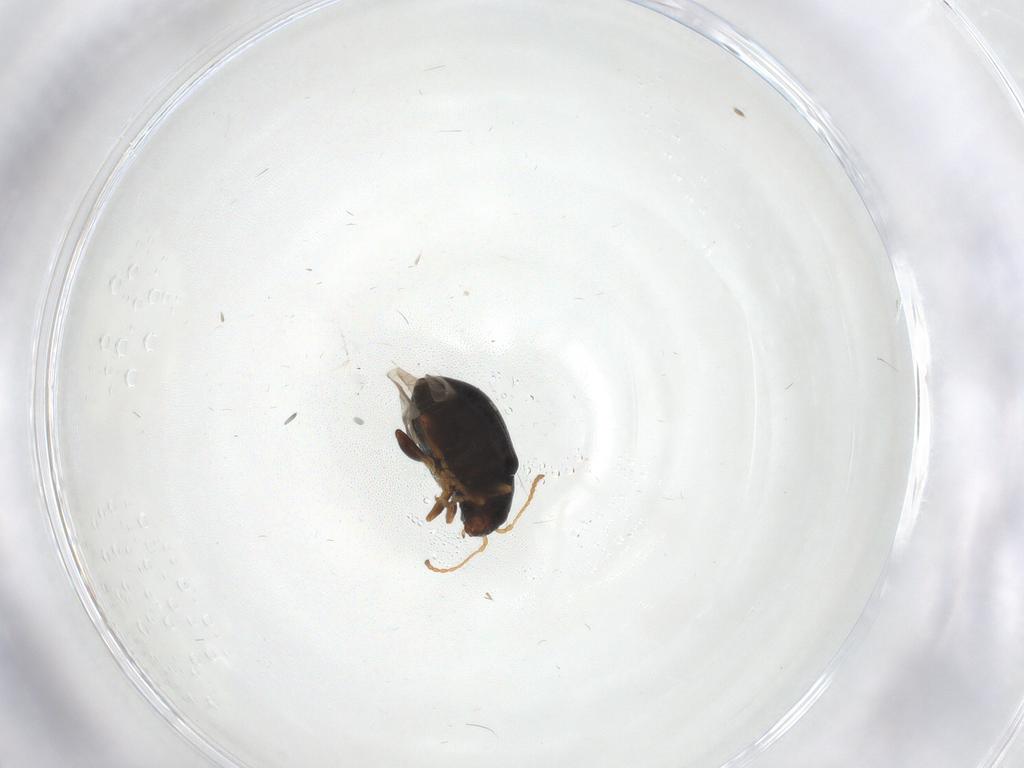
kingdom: Animalia
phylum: Arthropoda
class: Insecta
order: Coleoptera
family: Chrysomelidae
